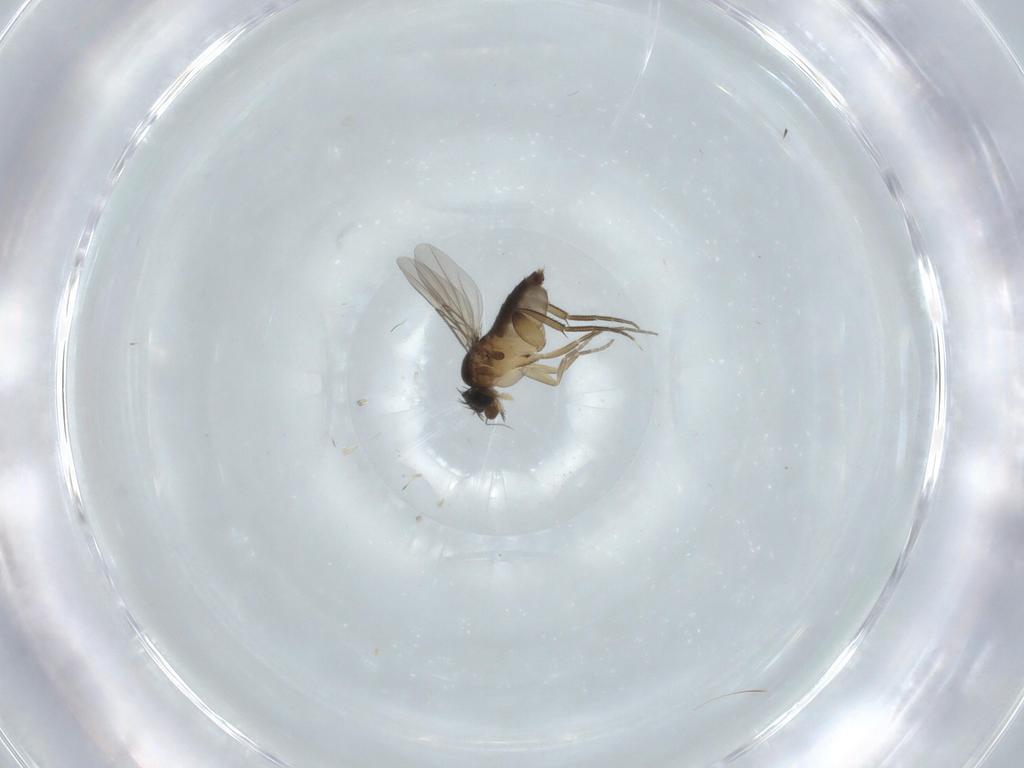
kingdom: Animalia
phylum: Arthropoda
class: Insecta
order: Diptera
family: Phoridae
